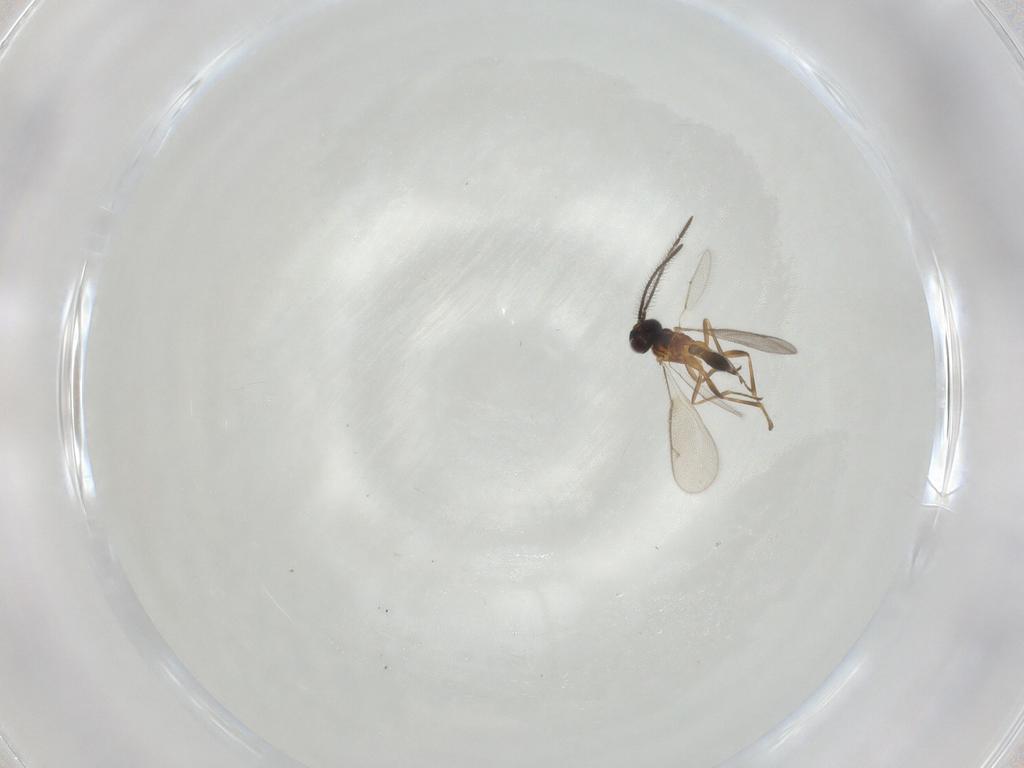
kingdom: Animalia
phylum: Arthropoda
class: Insecta
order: Hymenoptera
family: Eupelmidae
